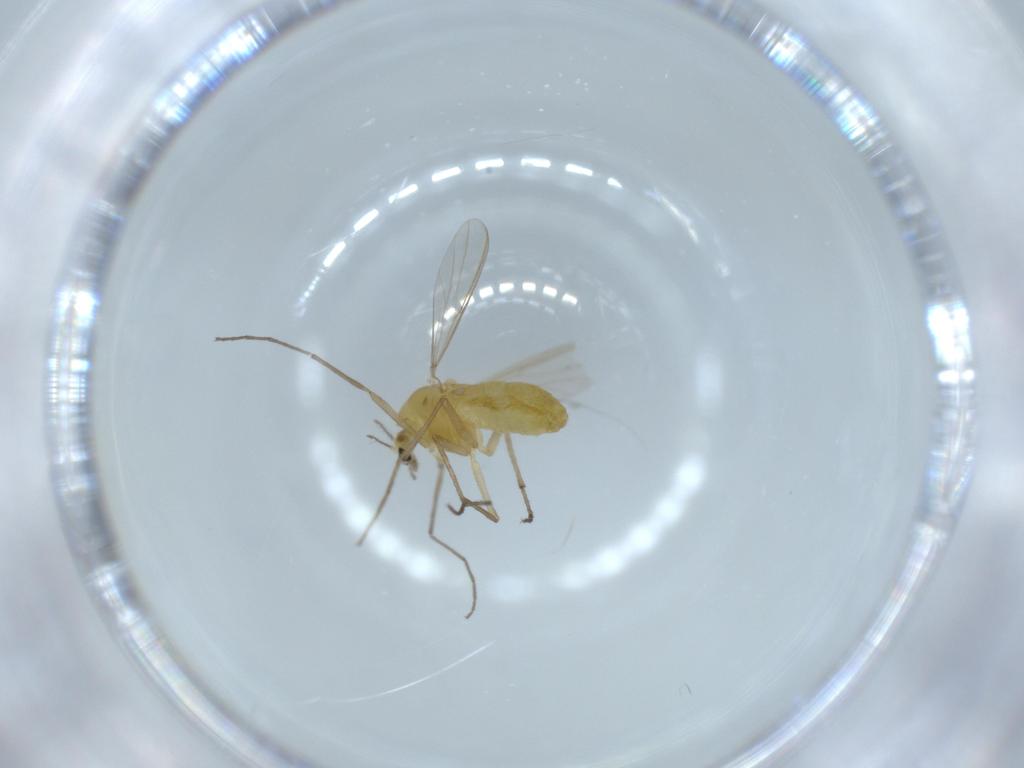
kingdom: Animalia
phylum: Arthropoda
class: Insecta
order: Diptera
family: Chironomidae
